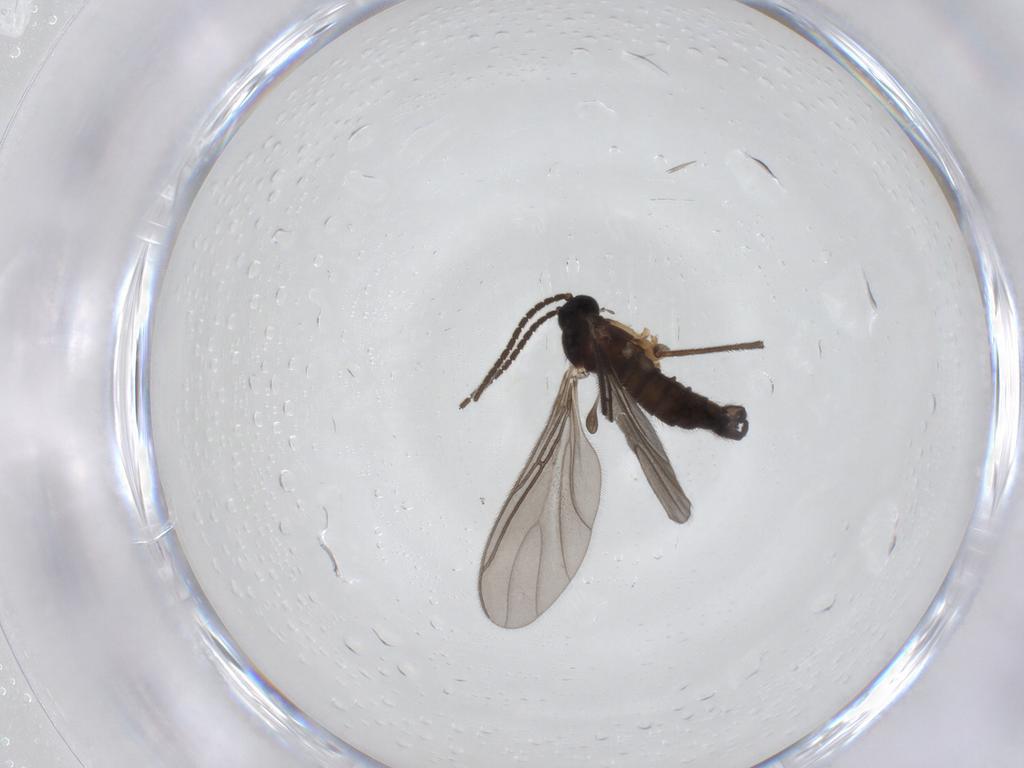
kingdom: Animalia
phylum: Arthropoda
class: Insecta
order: Diptera
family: Sciaridae
